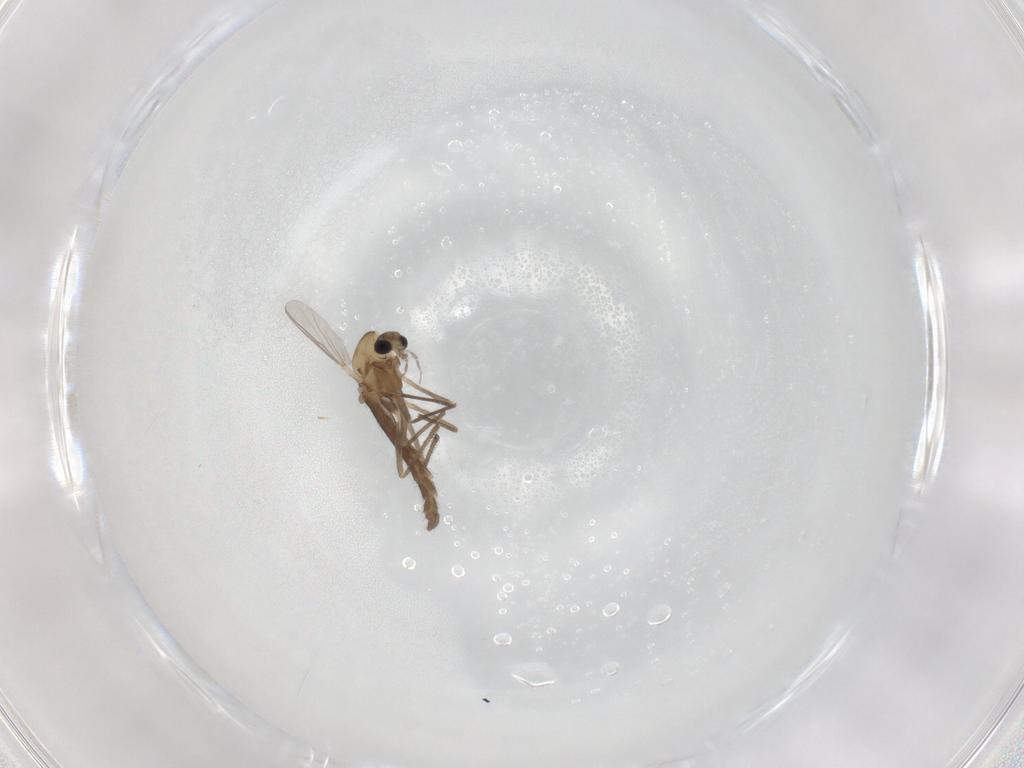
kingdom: Animalia
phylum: Arthropoda
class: Insecta
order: Diptera
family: Chironomidae
